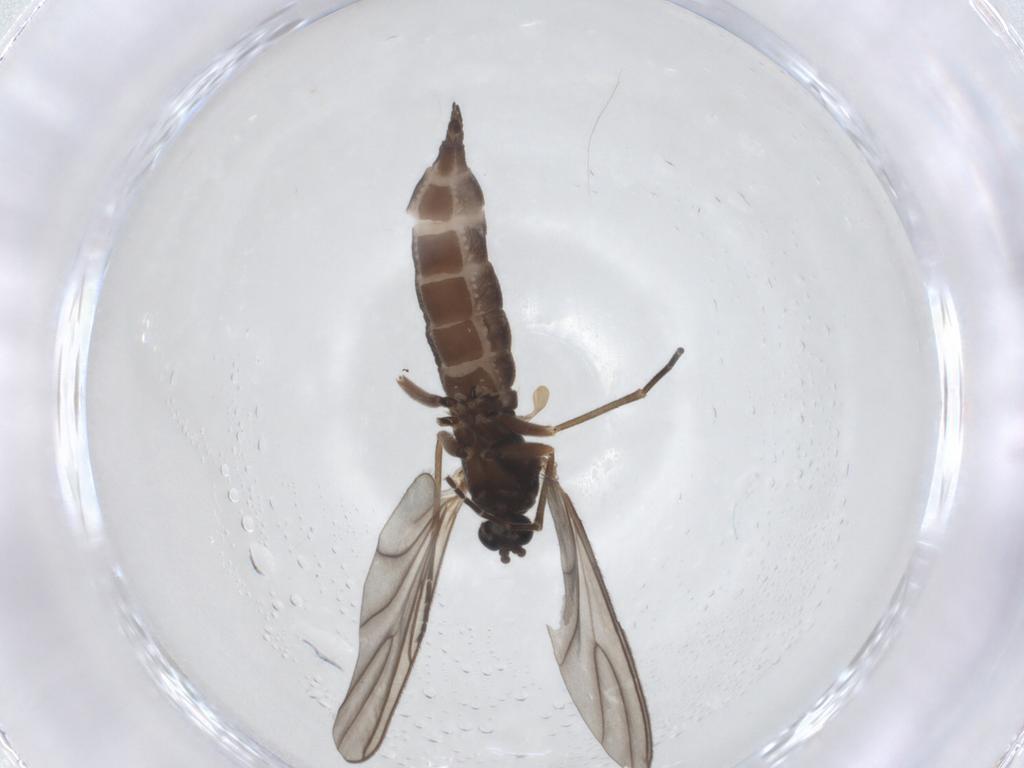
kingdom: Animalia
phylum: Arthropoda
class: Insecta
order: Diptera
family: Sciaridae
